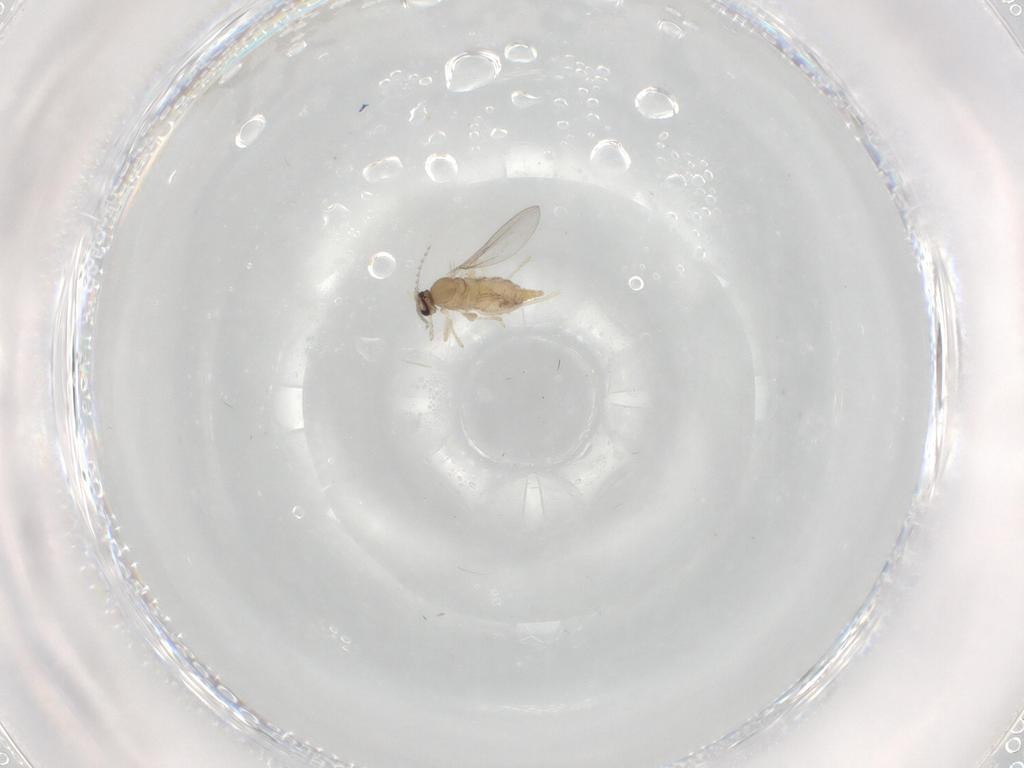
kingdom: Animalia
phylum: Arthropoda
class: Insecta
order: Diptera
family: Cecidomyiidae
